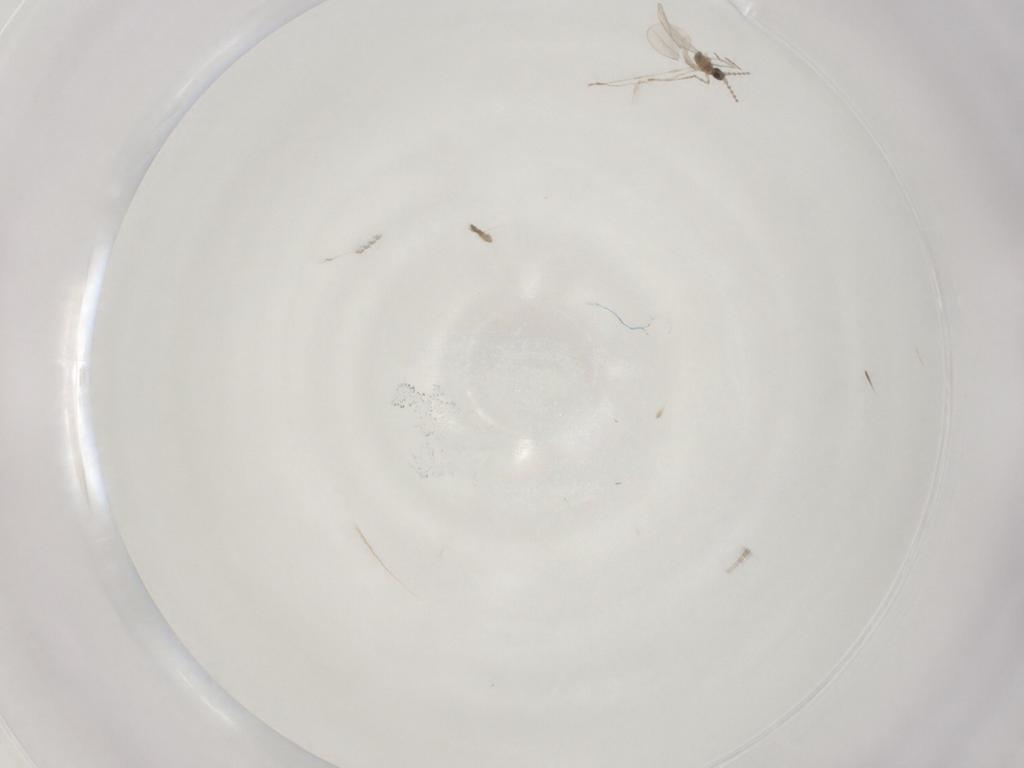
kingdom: Animalia
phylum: Arthropoda
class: Insecta
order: Diptera
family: Cecidomyiidae
